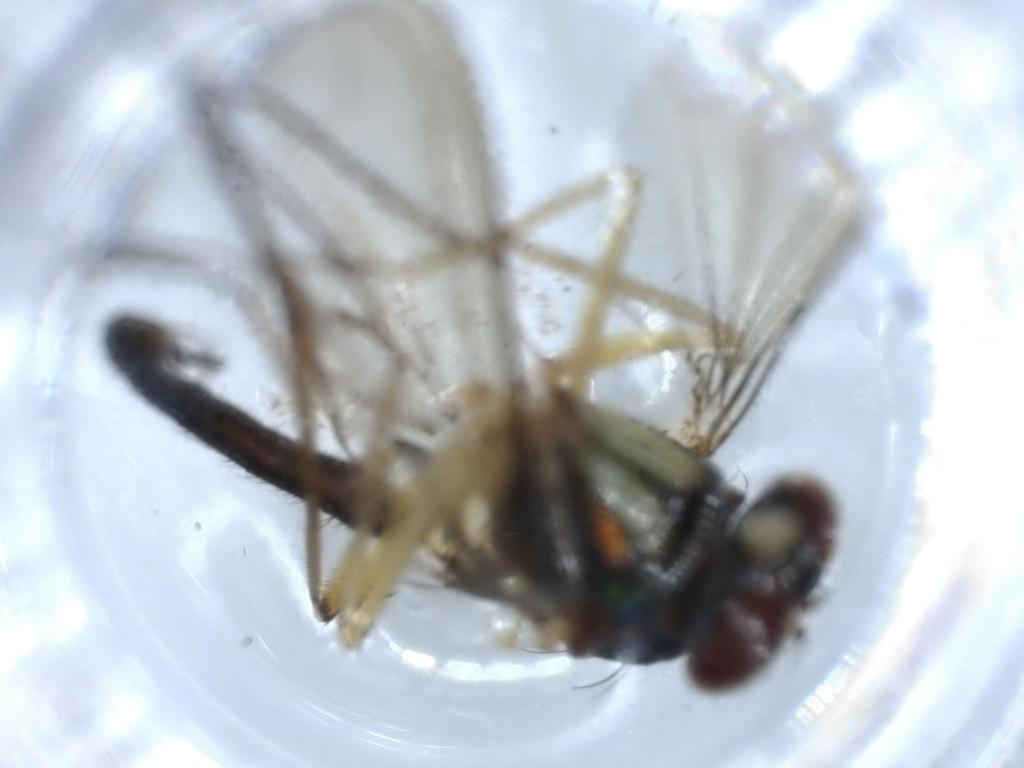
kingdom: Animalia
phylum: Arthropoda
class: Insecta
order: Diptera
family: Phoridae
